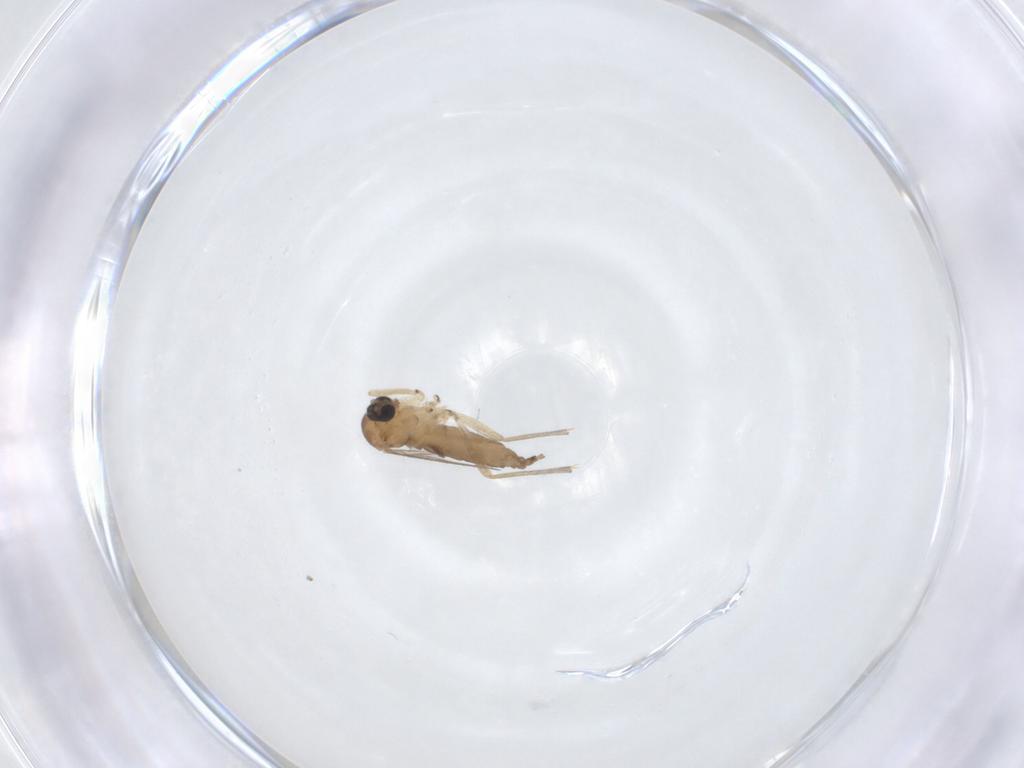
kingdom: Animalia
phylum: Arthropoda
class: Insecta
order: Diptera
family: Sciaridae
